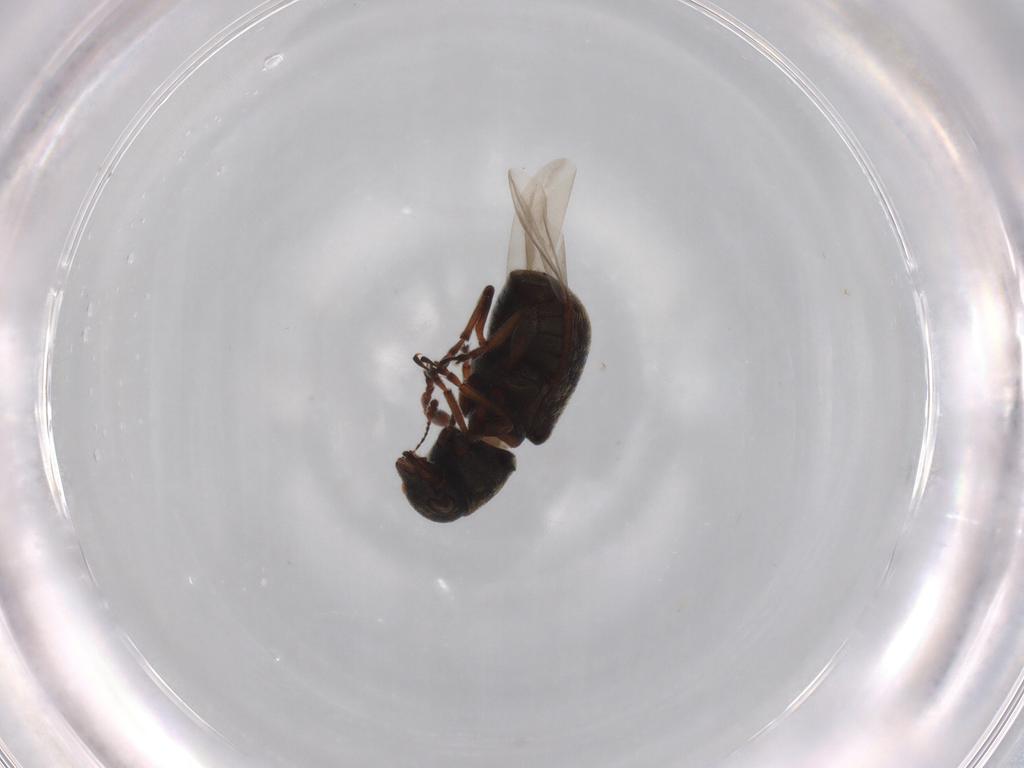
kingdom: Animalia
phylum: Arthropoda
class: Insecta
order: Coleoptera
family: Anthribidae
